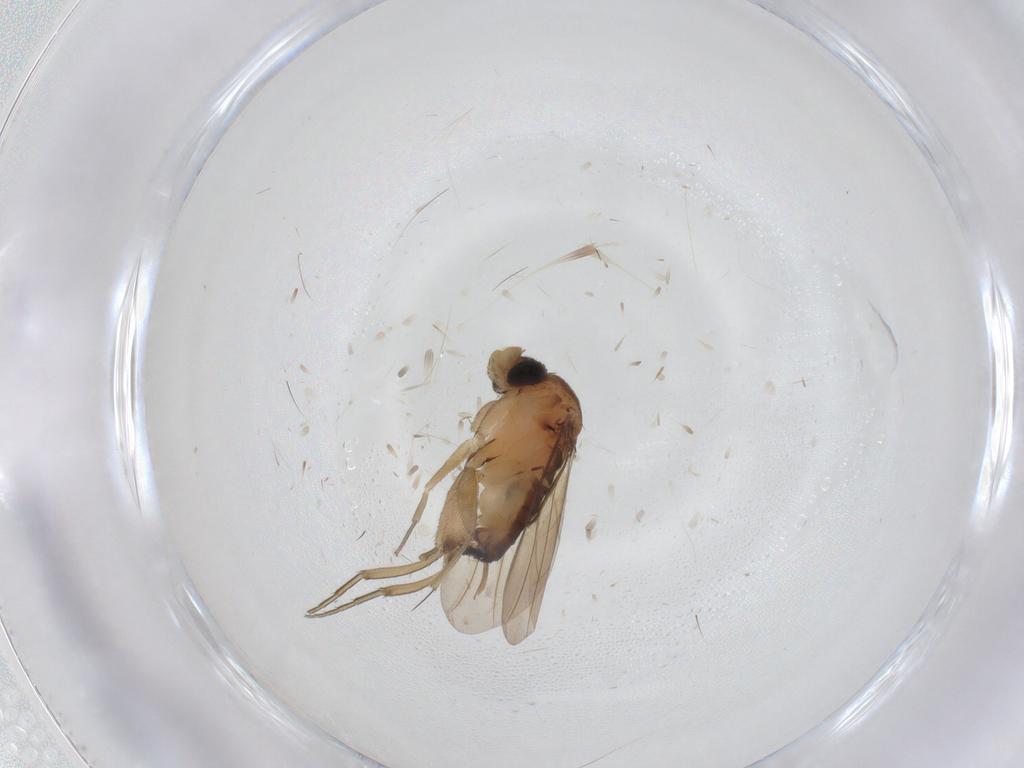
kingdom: Animalia
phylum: Arthropoda
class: Insecta
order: Diptera
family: Phoridae
